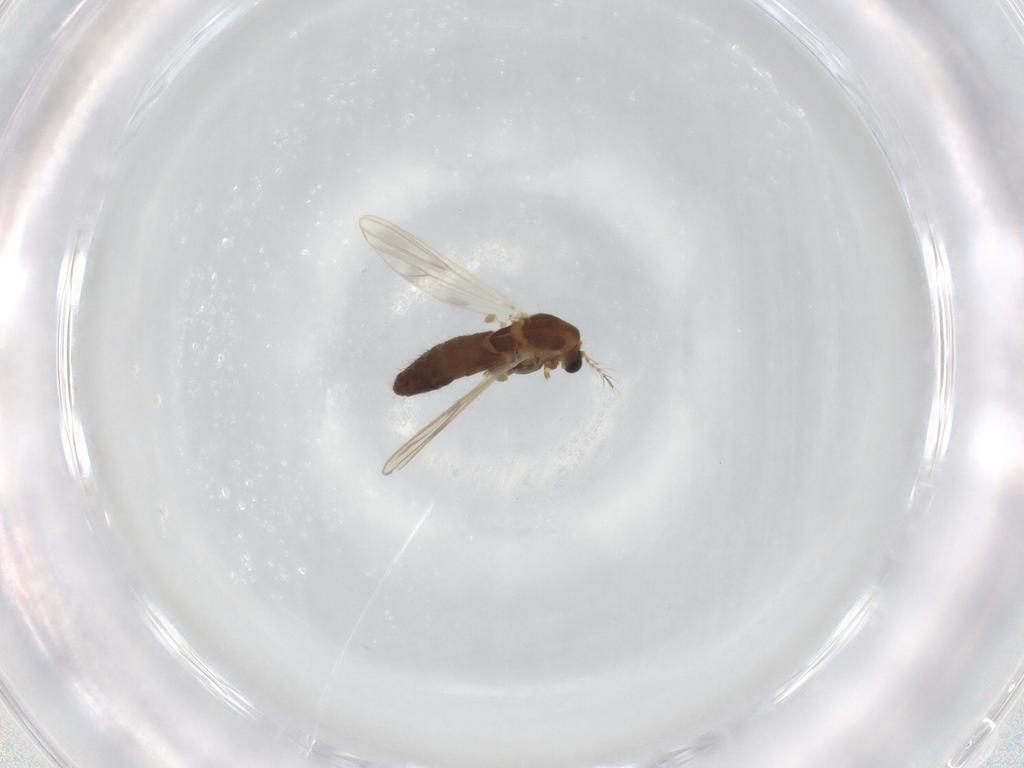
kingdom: Animalia
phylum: Arthropoda
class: Insecta
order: Diptera
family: Chironomidae
